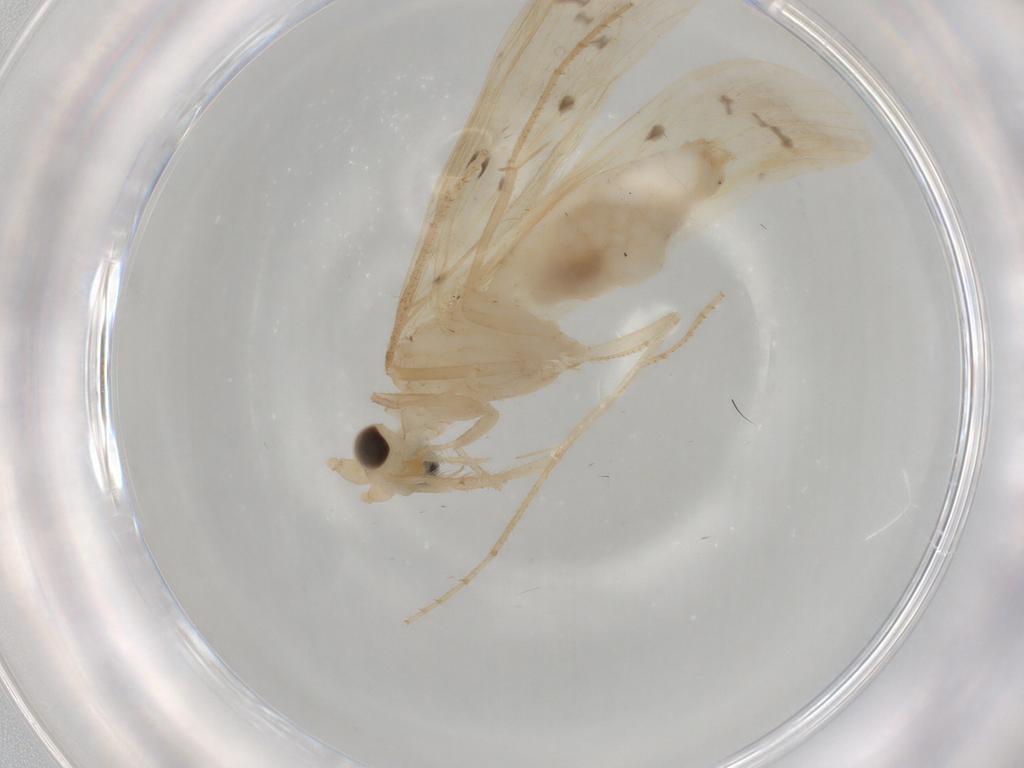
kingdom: Animalia
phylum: Arthropoda
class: Insecta
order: Trichoptera
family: Leptoceridae
